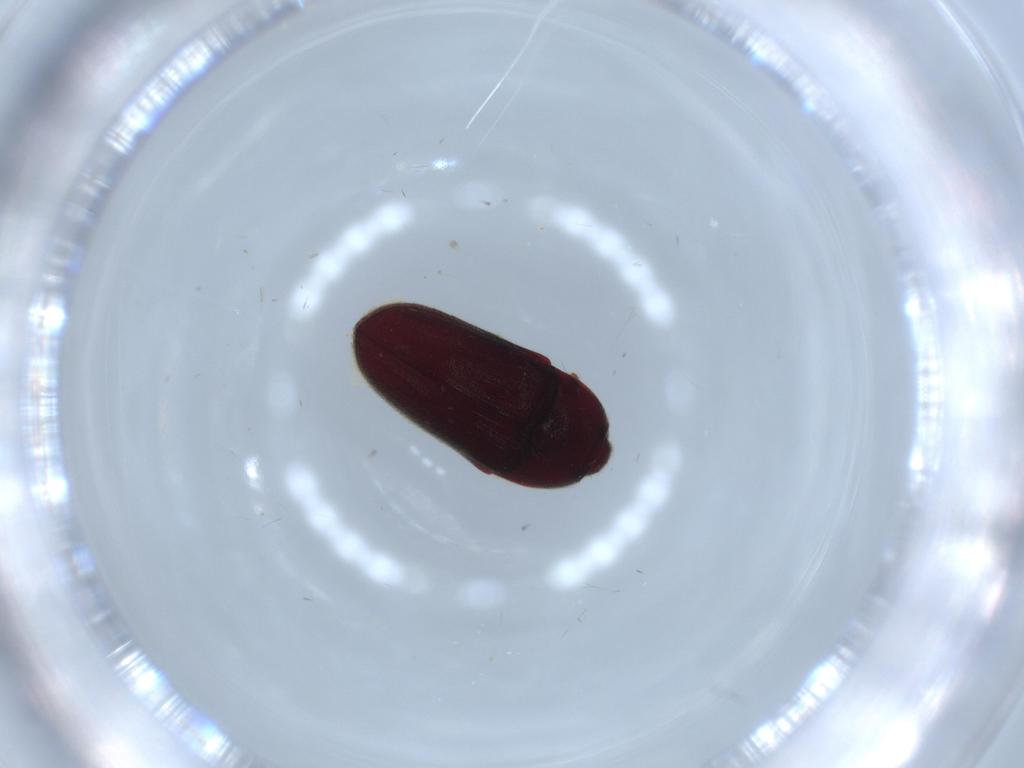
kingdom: Animalia
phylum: Arthropoda
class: Insecta
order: Coleoptera
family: Throscidae
